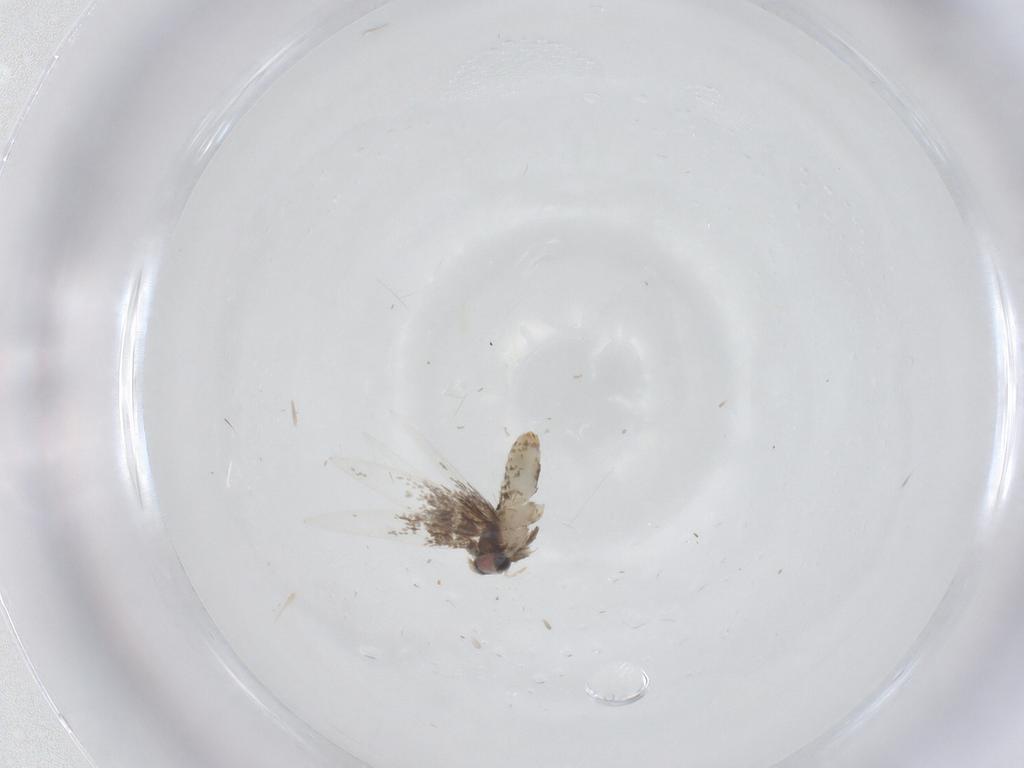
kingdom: Animalia
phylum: Arthropoda
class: Insecta
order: Lepidoptera
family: Nepticulidae
